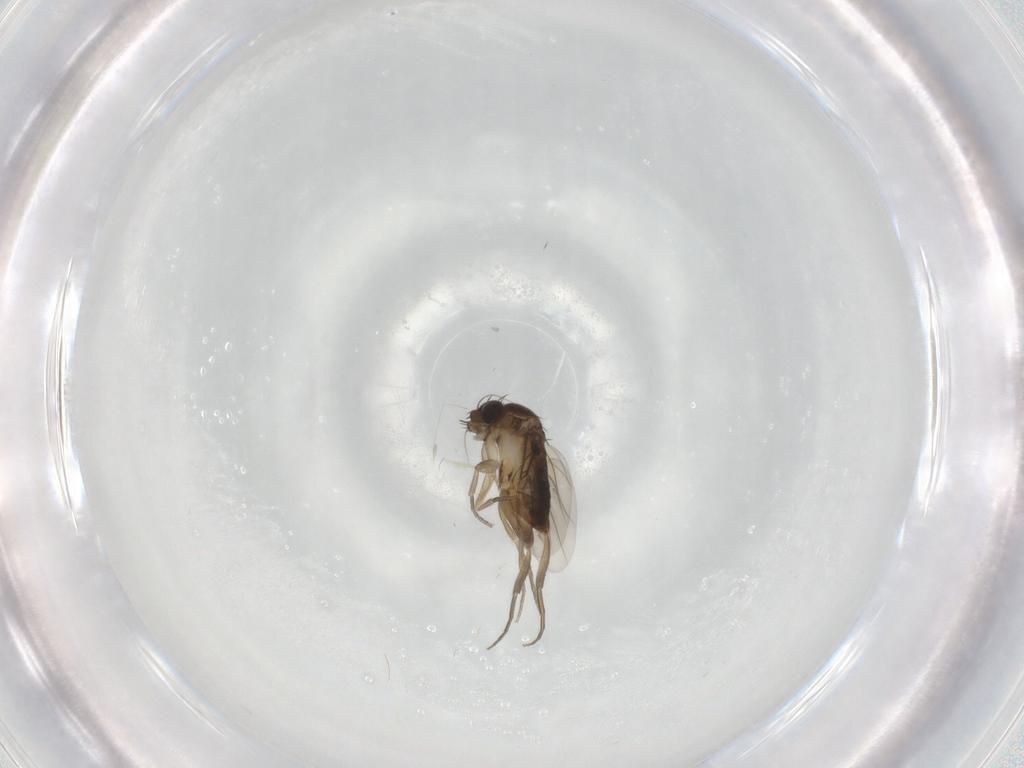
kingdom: Animalia
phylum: Arthropoda
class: Insecta
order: Diptera
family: Phoridae
